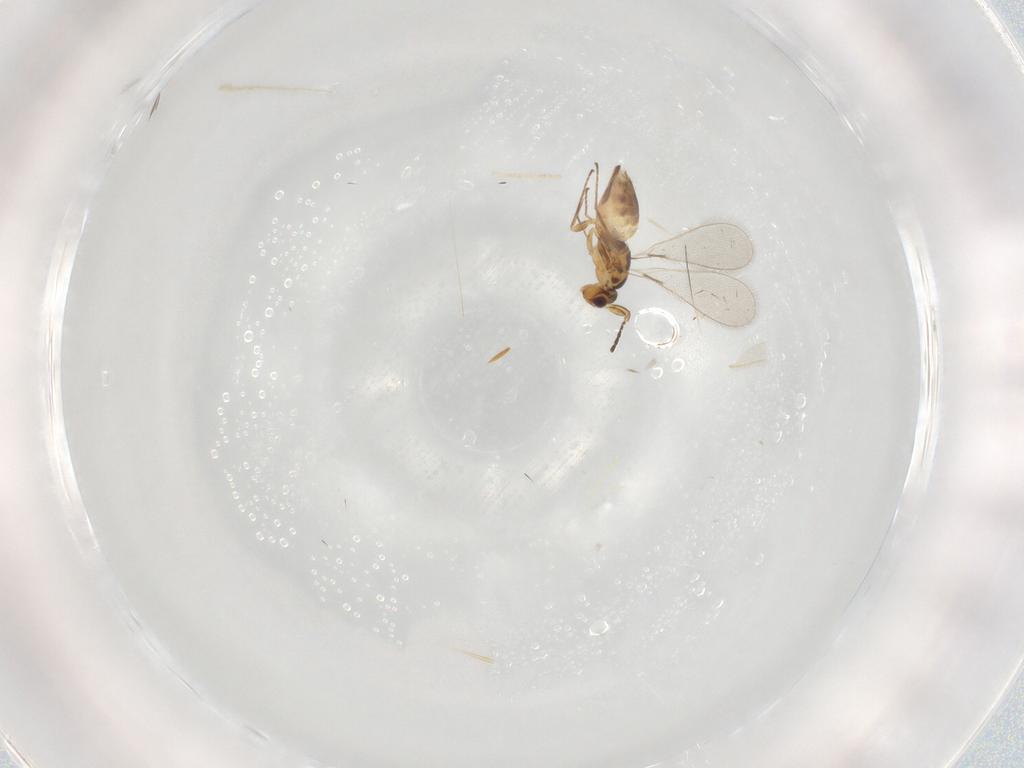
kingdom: Animalia
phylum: Arthropoda
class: Insecta
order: Hymenoptera
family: Mymaridae
